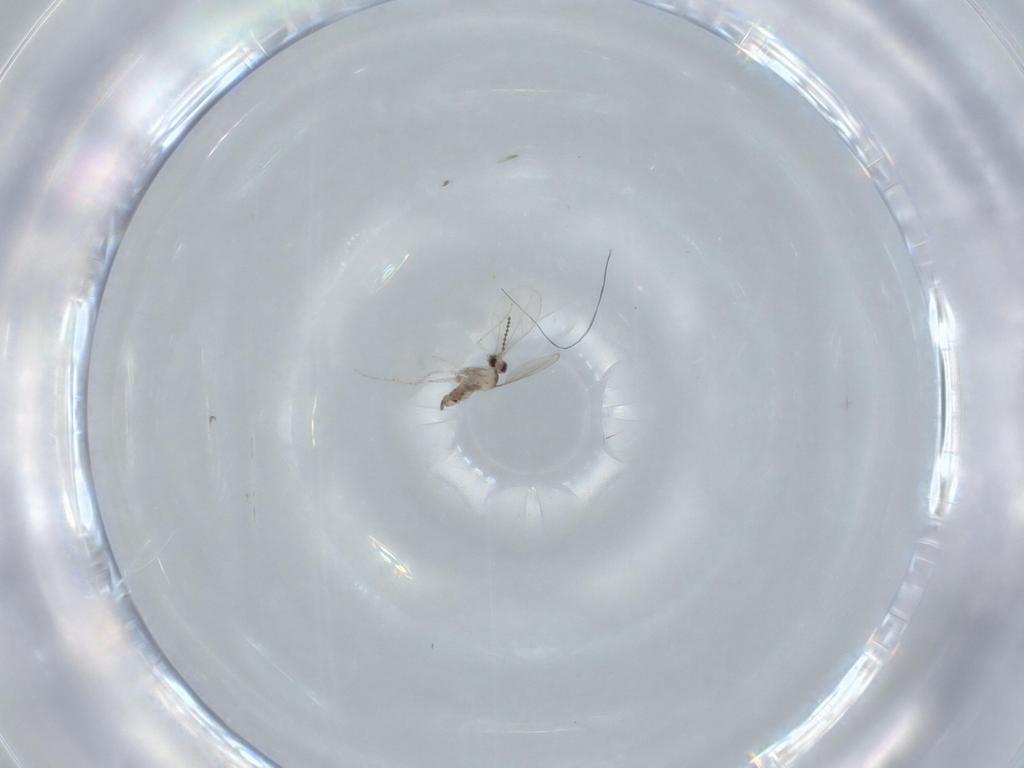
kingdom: Animalia
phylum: Arthropoda
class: Insecta
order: Diptera
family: Cecidomyiidae
